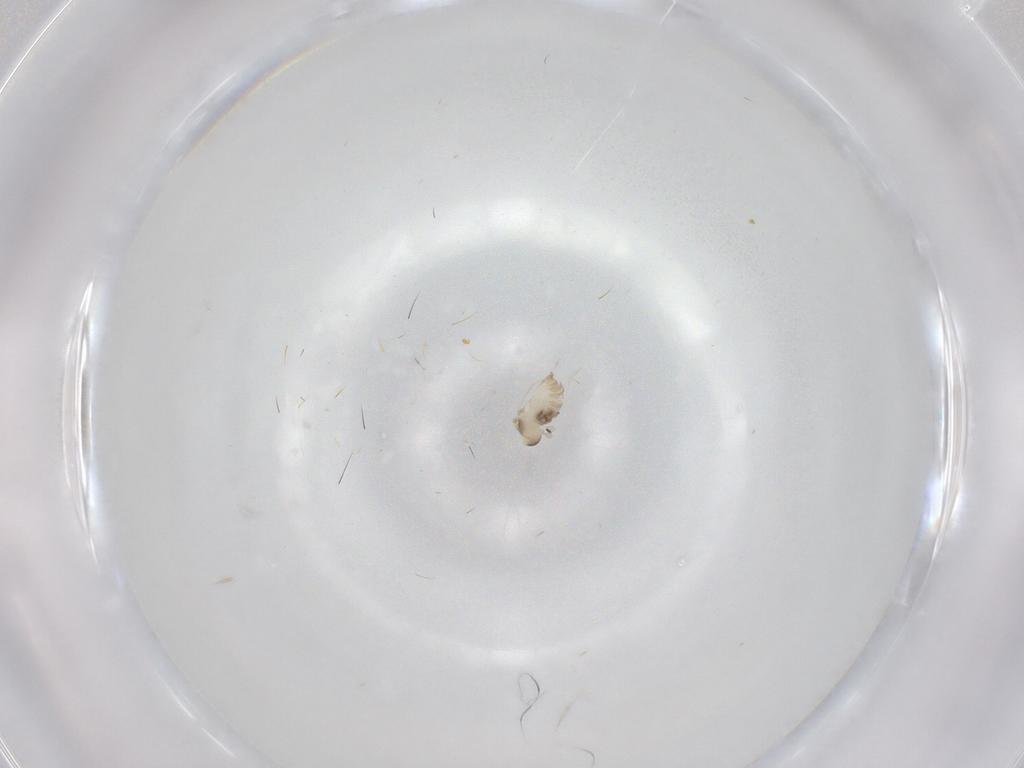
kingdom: Animalia
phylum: Arthropoda
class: Insecta
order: Diptera
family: Cecidomyiidae
